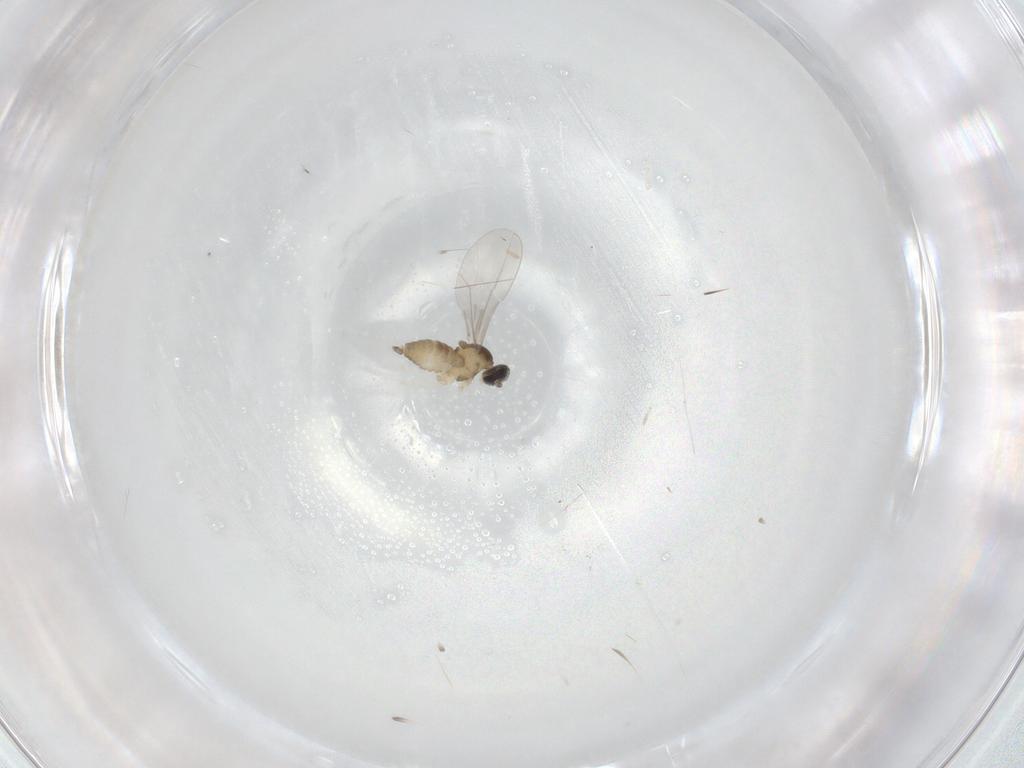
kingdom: Animalia
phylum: Arthropoda
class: Insecta
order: Diptera
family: Cecidomyiidae
